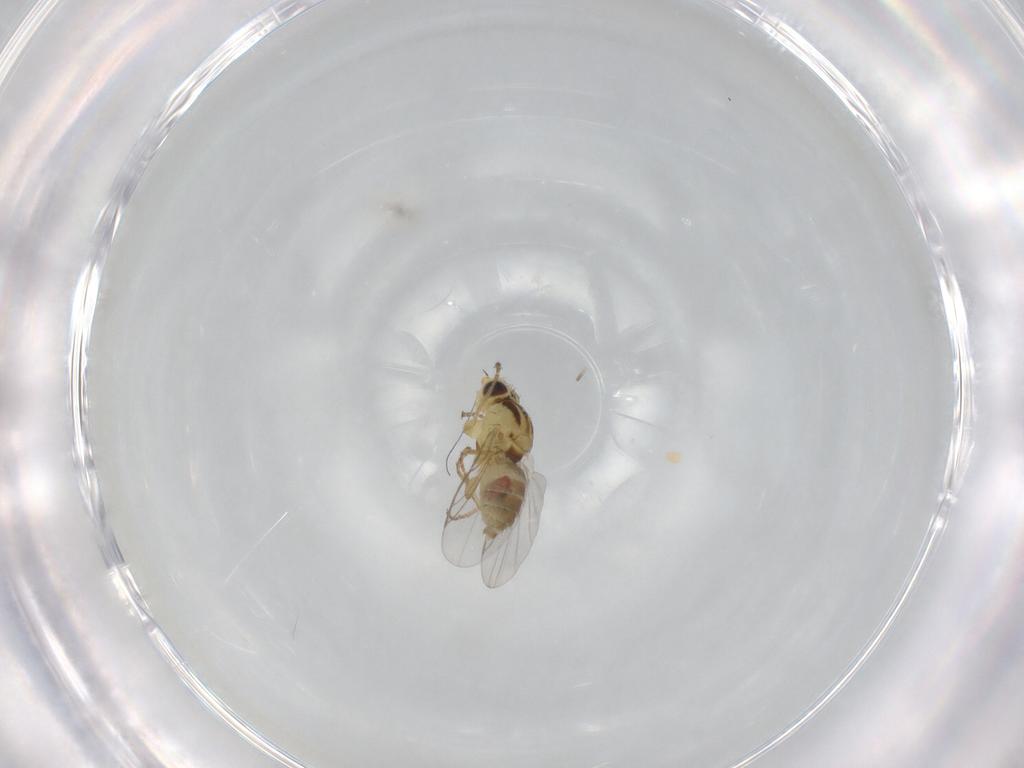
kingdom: Animalia
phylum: Arthropoda
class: Insecta
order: Diptera
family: Agromyzidae
